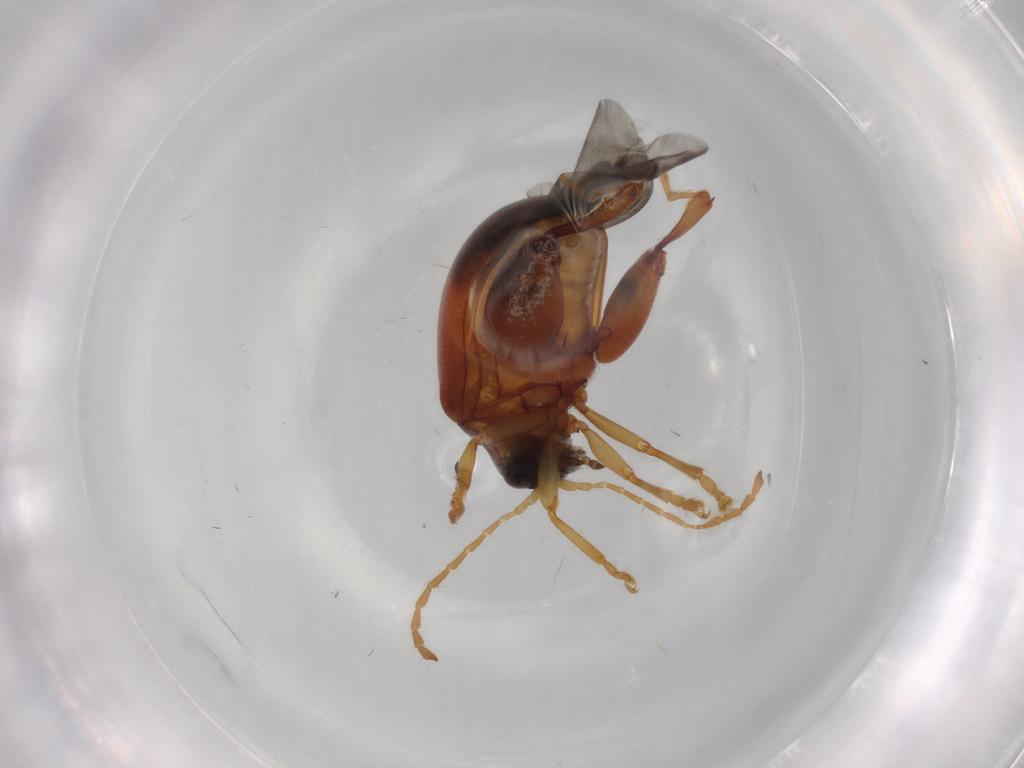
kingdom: Animalia
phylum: Arthropoda
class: Insecta
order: Coleoptera
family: Chrysomelidae
